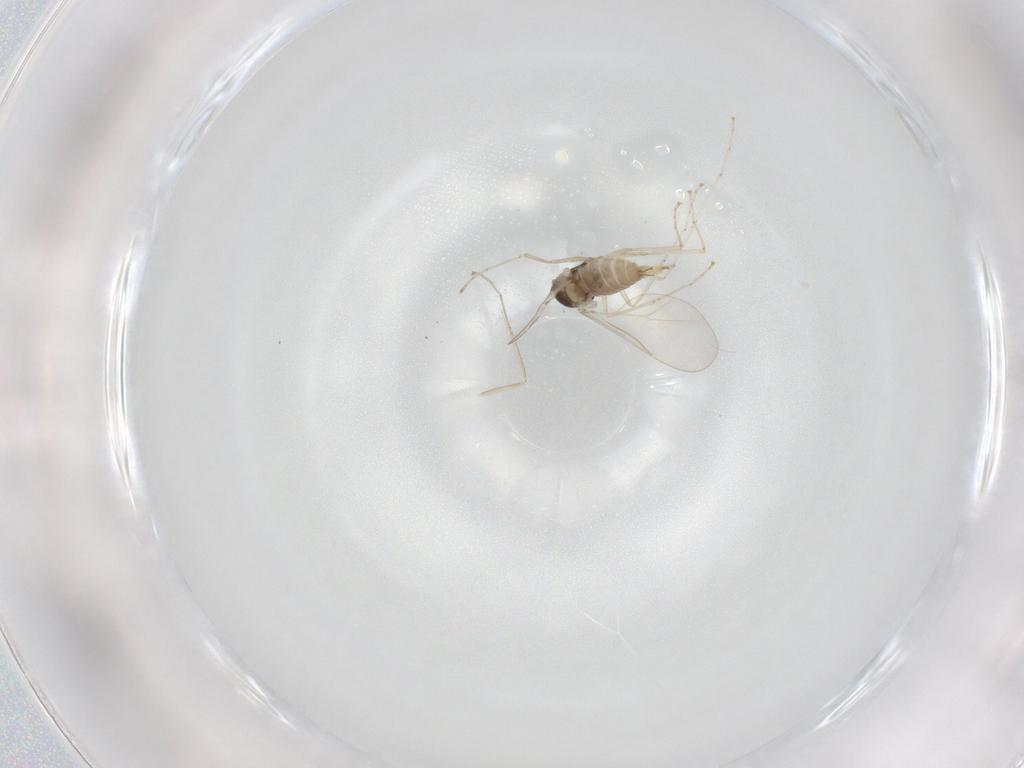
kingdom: Animalia
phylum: Arthropoda
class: Insecta
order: Diptera
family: Cecidomyiidae
